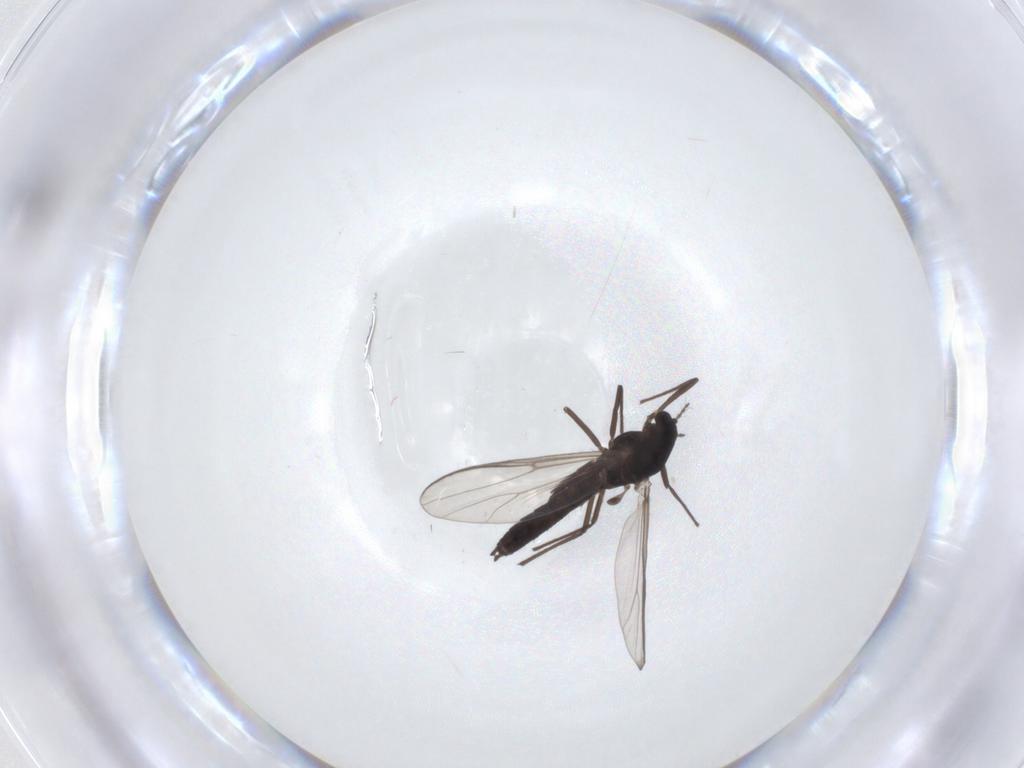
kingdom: Animalia
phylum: Arthropoda
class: Insecta
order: Diptera
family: Chironomidae
